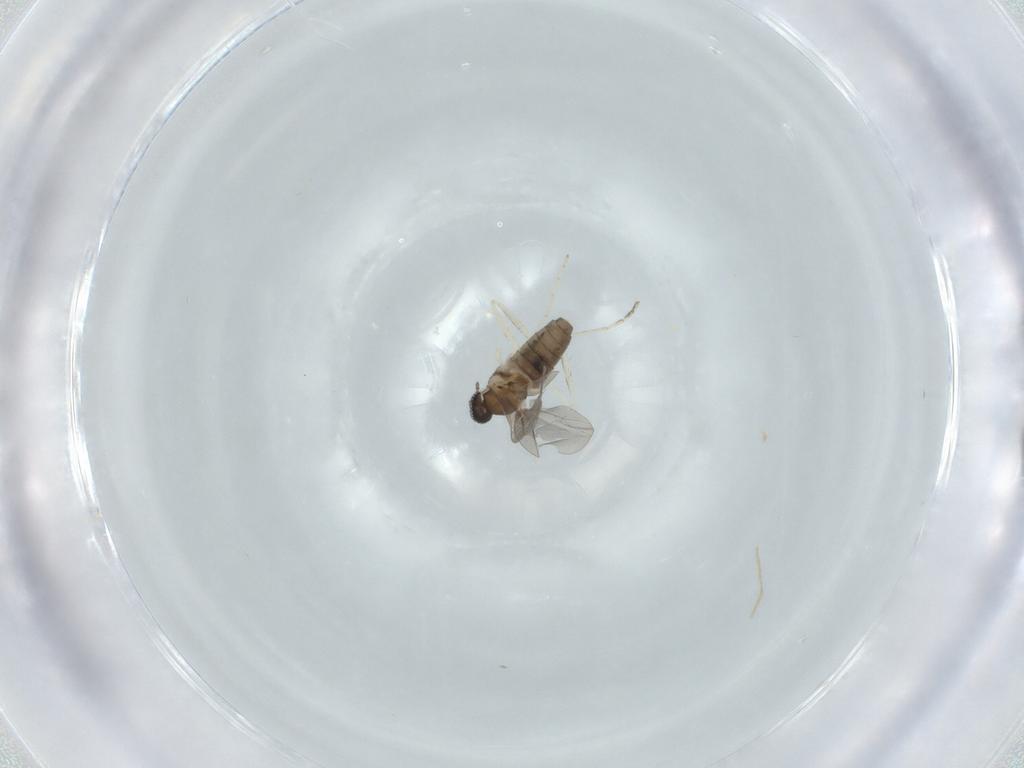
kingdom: Animalia
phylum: Arthropoda
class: Insecta
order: Diptera
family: Cecidomyiidae
